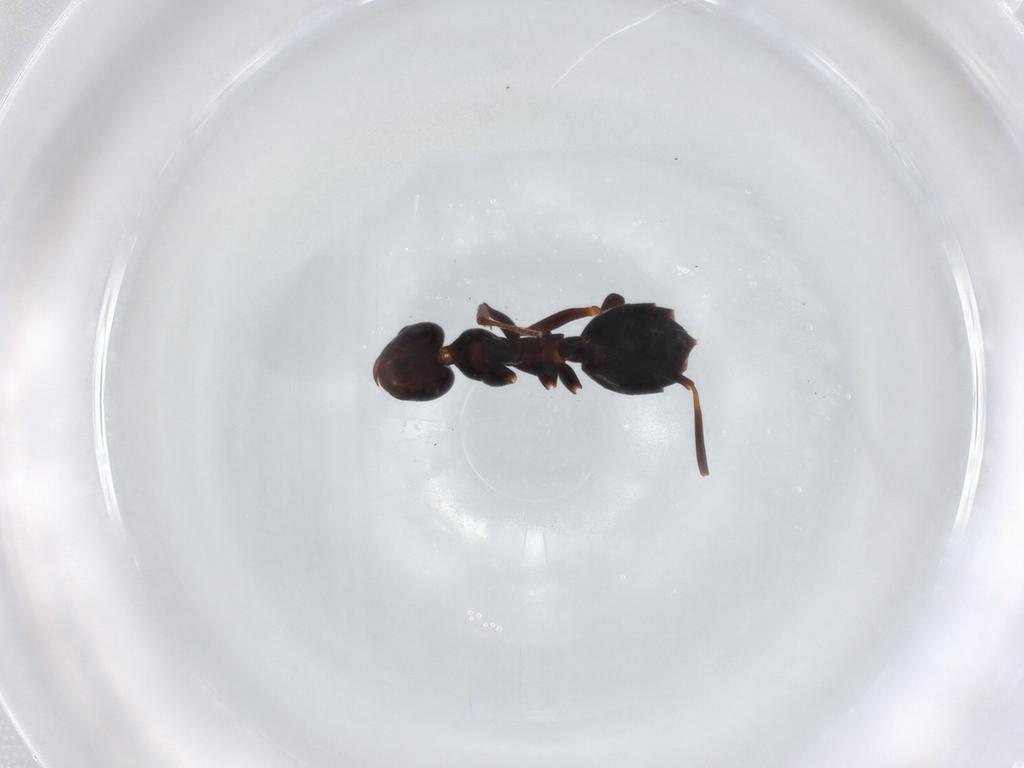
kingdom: Animalia
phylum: Arthropoda
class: Insecta
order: Hymenoptera
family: Formicidae
